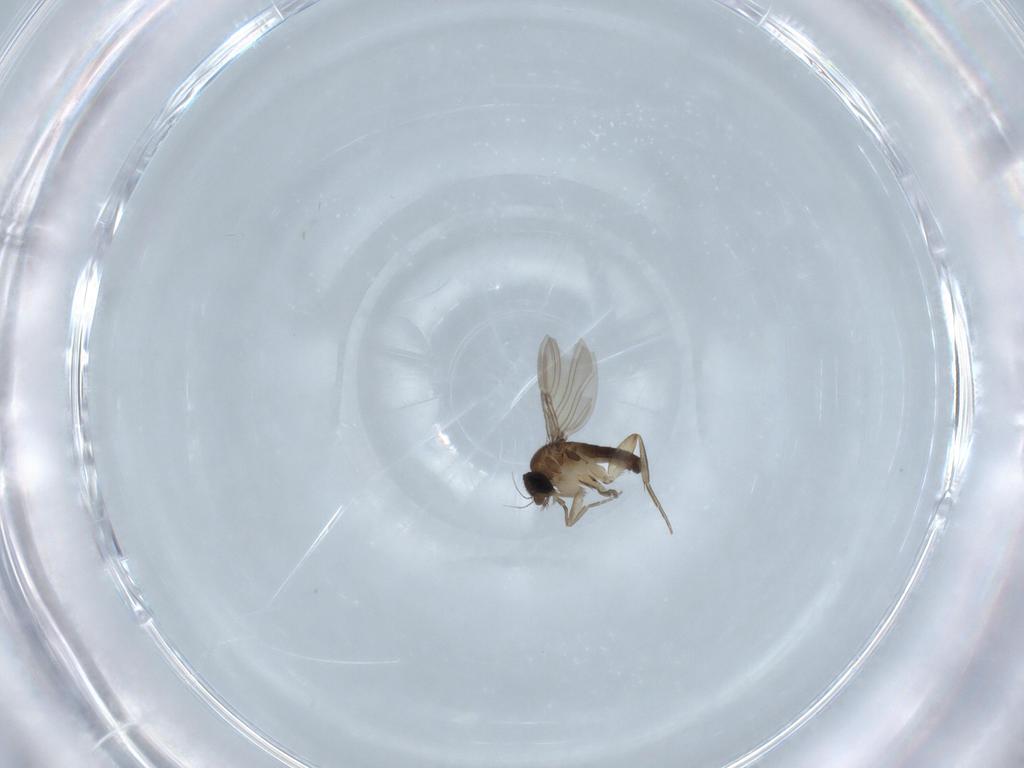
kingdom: Animalia
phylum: Arthropoda
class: Insecta
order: Diptera
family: Phoridae
